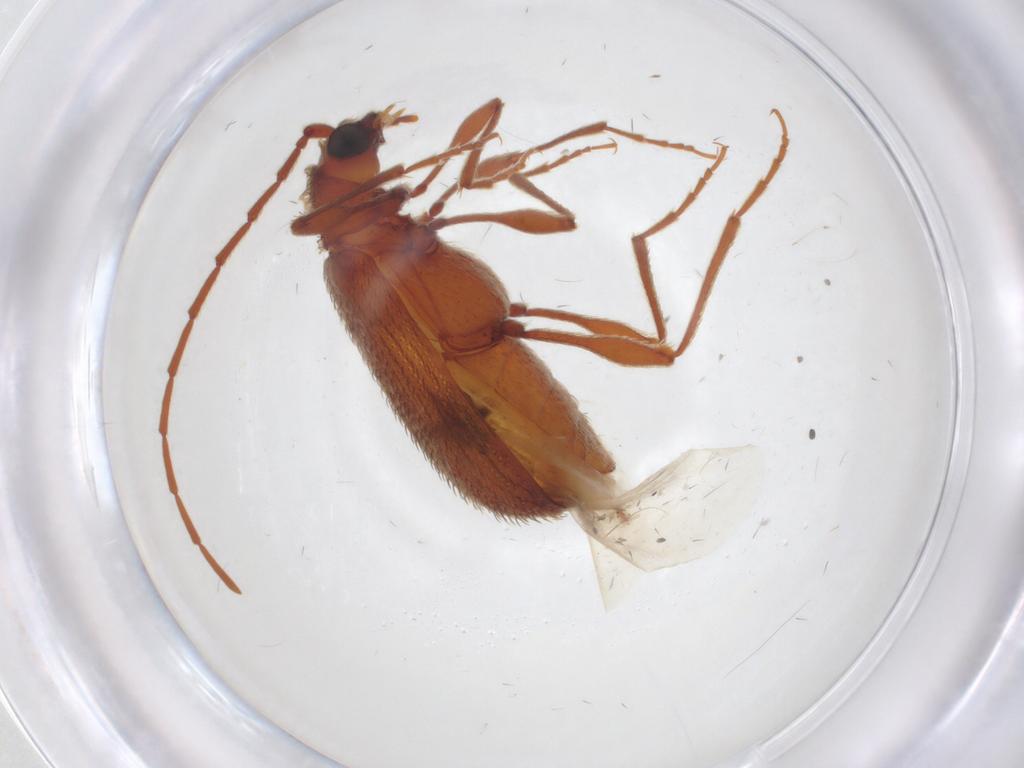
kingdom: Animalia
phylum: Arthropoda
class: Insecta
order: Coleoptera
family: Ptinidae
